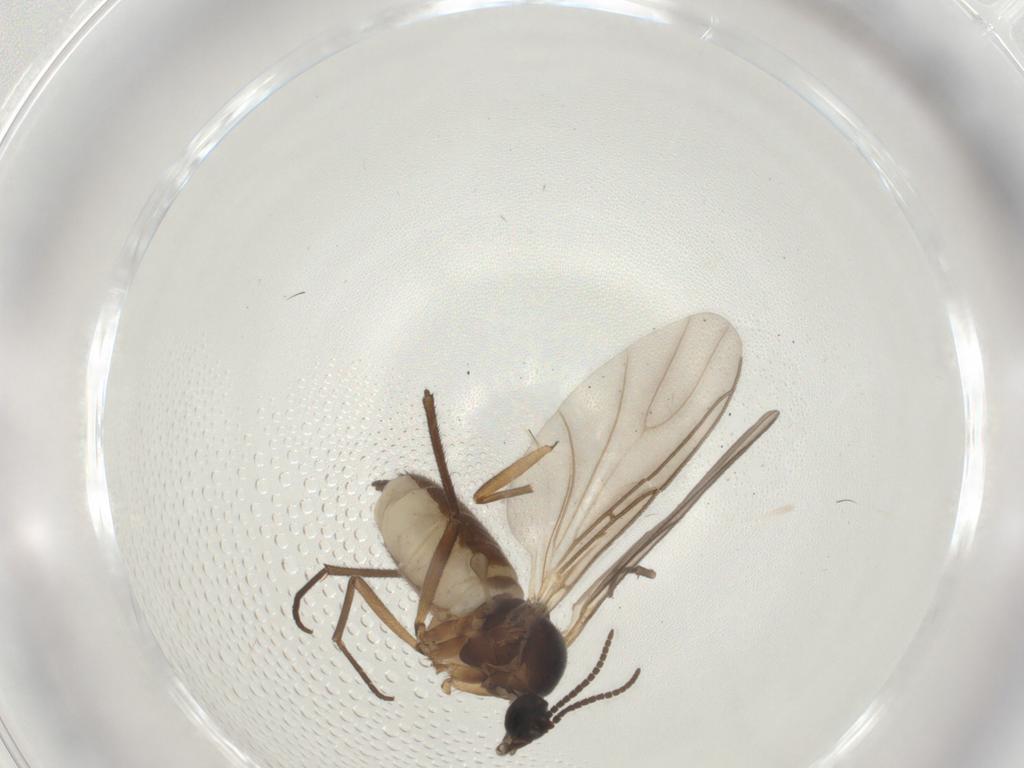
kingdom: Animalia
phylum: Arthropoda
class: Insecta
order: Diptera
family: Sciaridae
